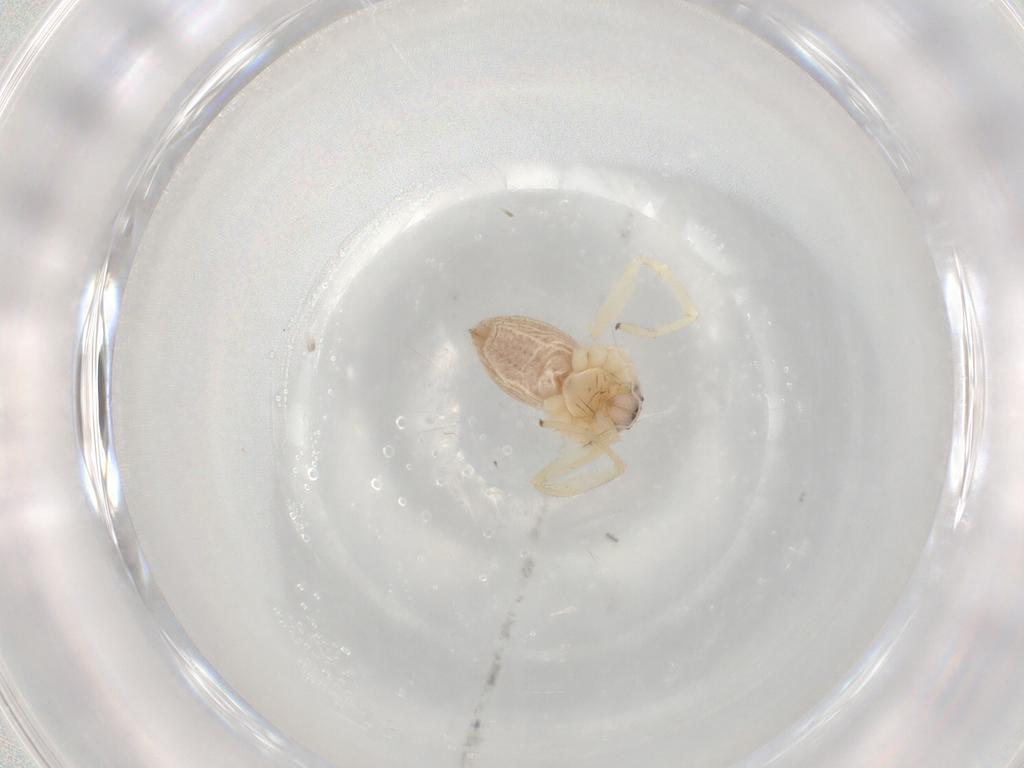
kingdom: Animalia
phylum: Arthropoda
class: Arachnida
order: Araneae
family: Philodromidae
